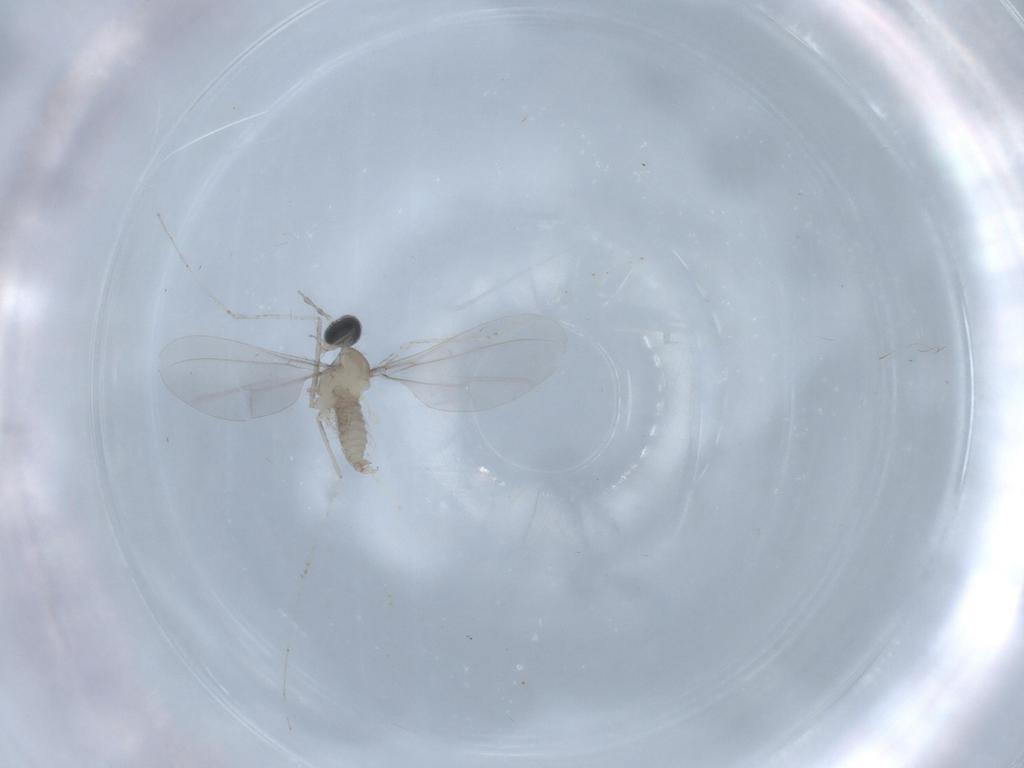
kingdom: Animalia
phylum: Arthropoda
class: Insecta
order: Diptera
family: Cecidomyiidae
